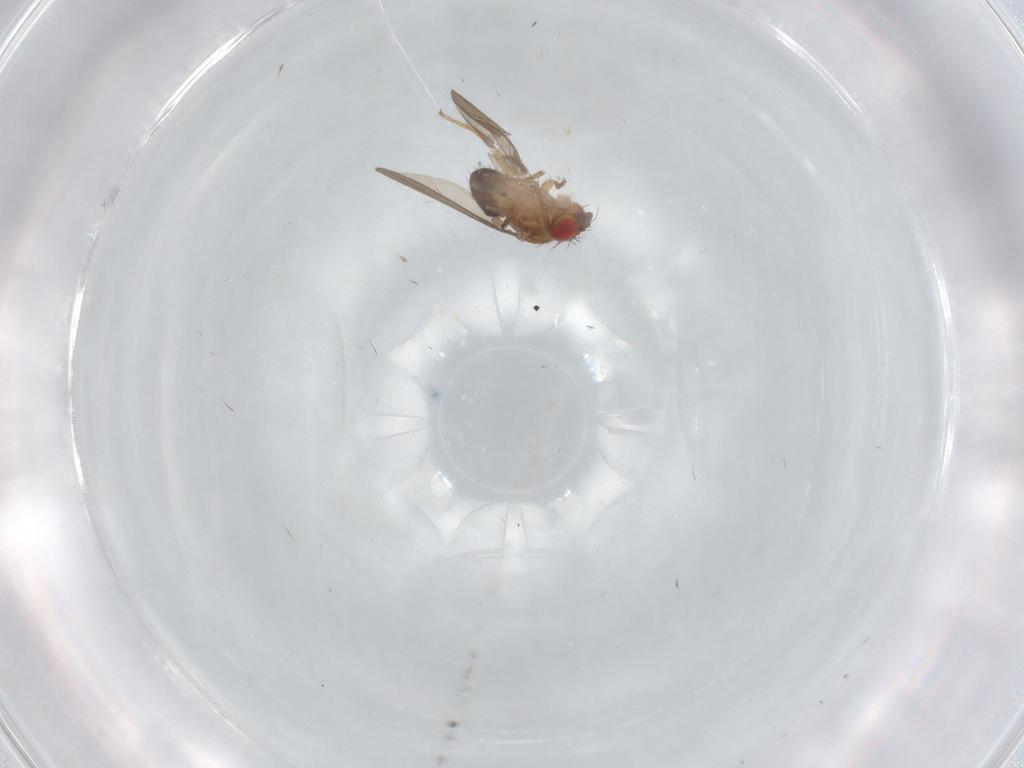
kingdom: Animalia
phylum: Arthropoda
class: Insecta
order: Diptera
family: Drosophilidae
